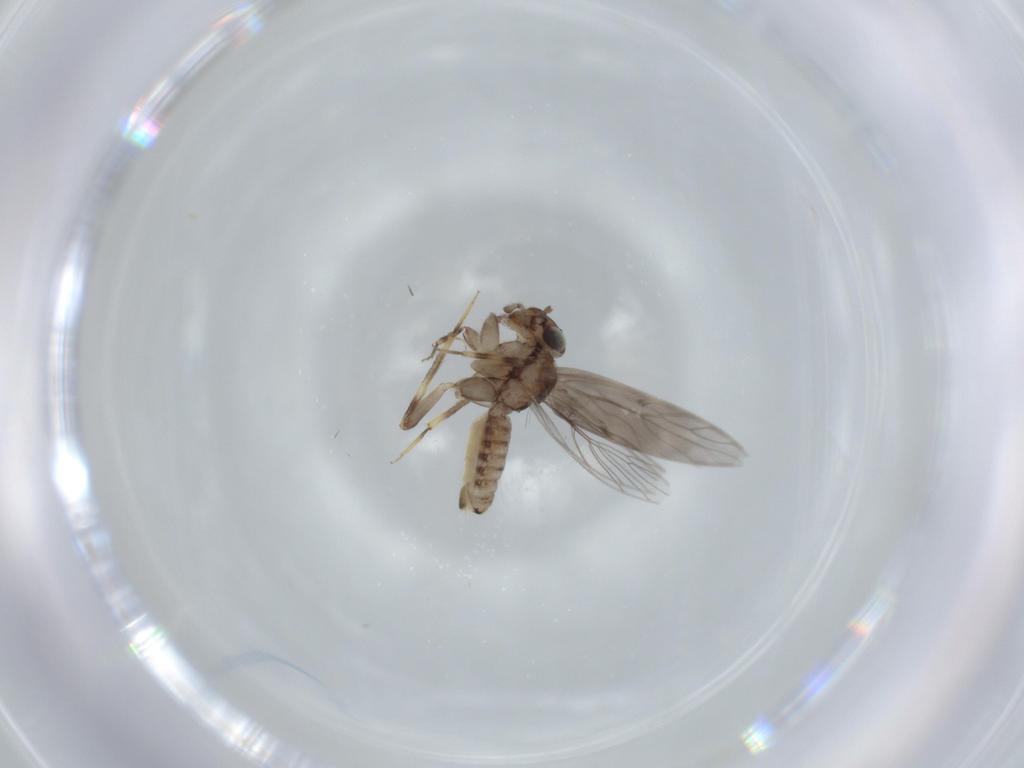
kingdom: Animalia
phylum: Arthropoda
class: Insecta
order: Psocodea
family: Lepidopsocidae
